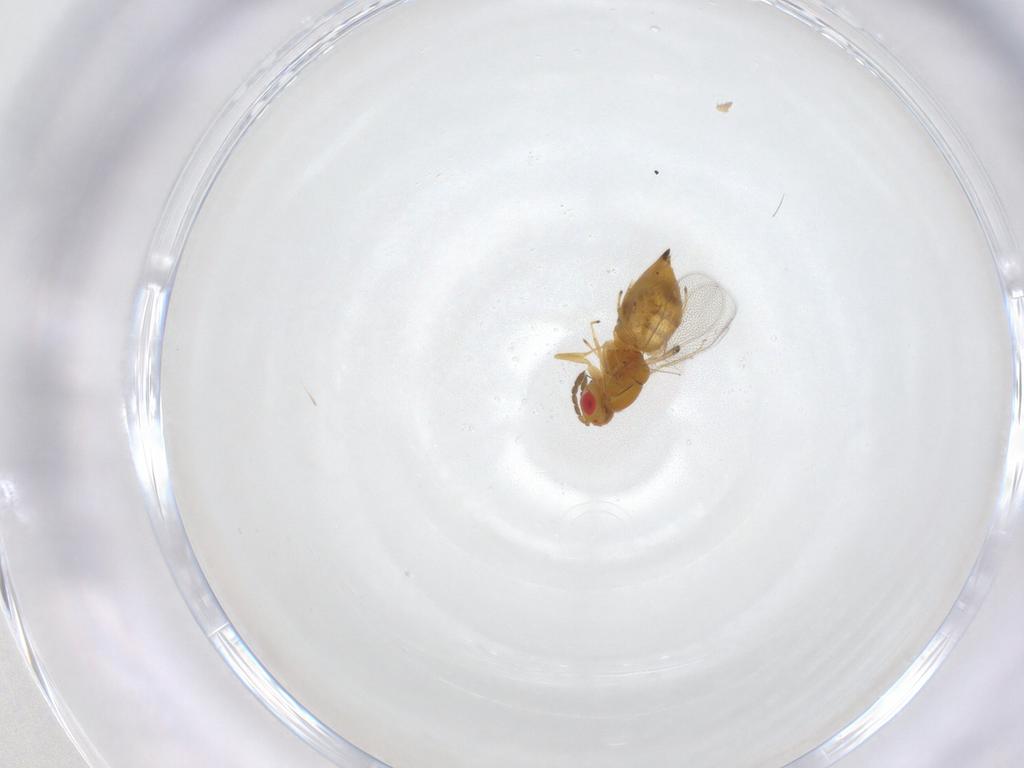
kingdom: Animalia
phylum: Arthropoda
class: Insecta
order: Hymenoptera
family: Eulophidae
